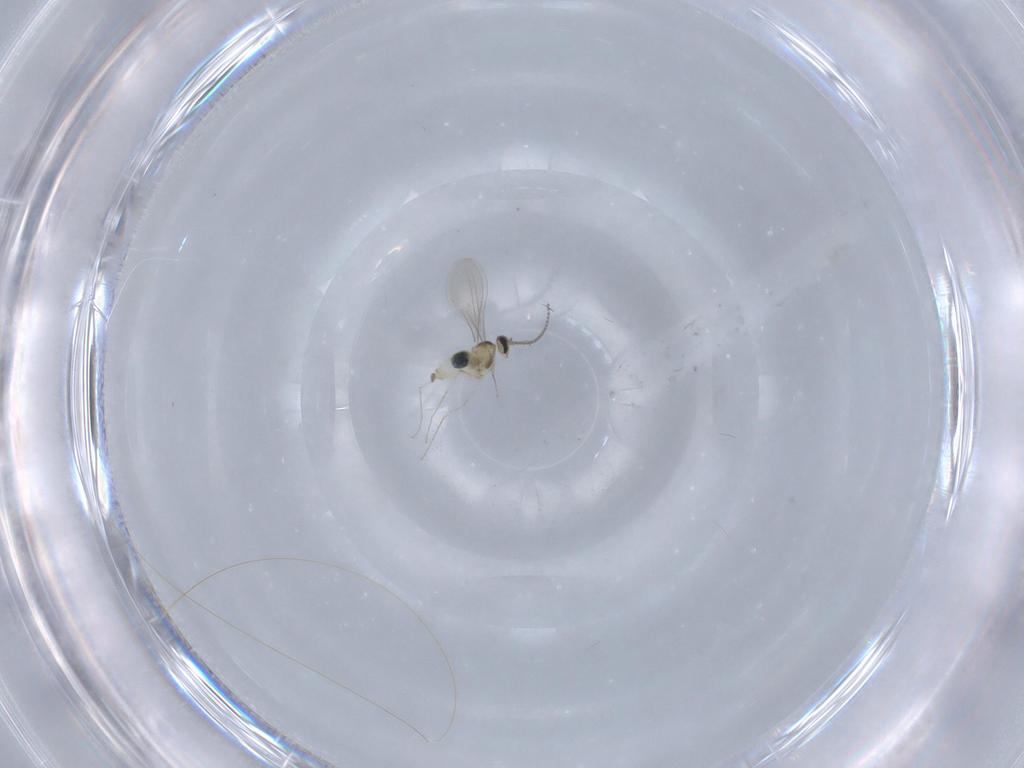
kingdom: Animalia
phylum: Arthropoda
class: Insecta
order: Diptera
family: Cecidomyiidae
